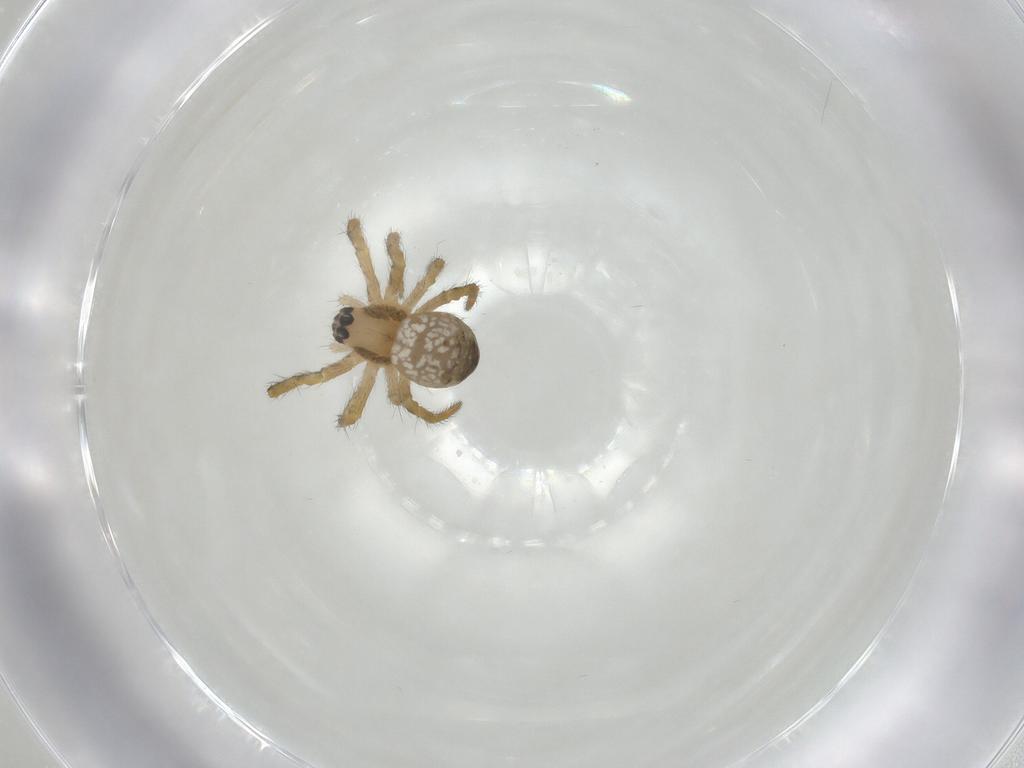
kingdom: Animalia
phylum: Arthropoda
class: Arachnida
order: Araneae
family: Araneidae
